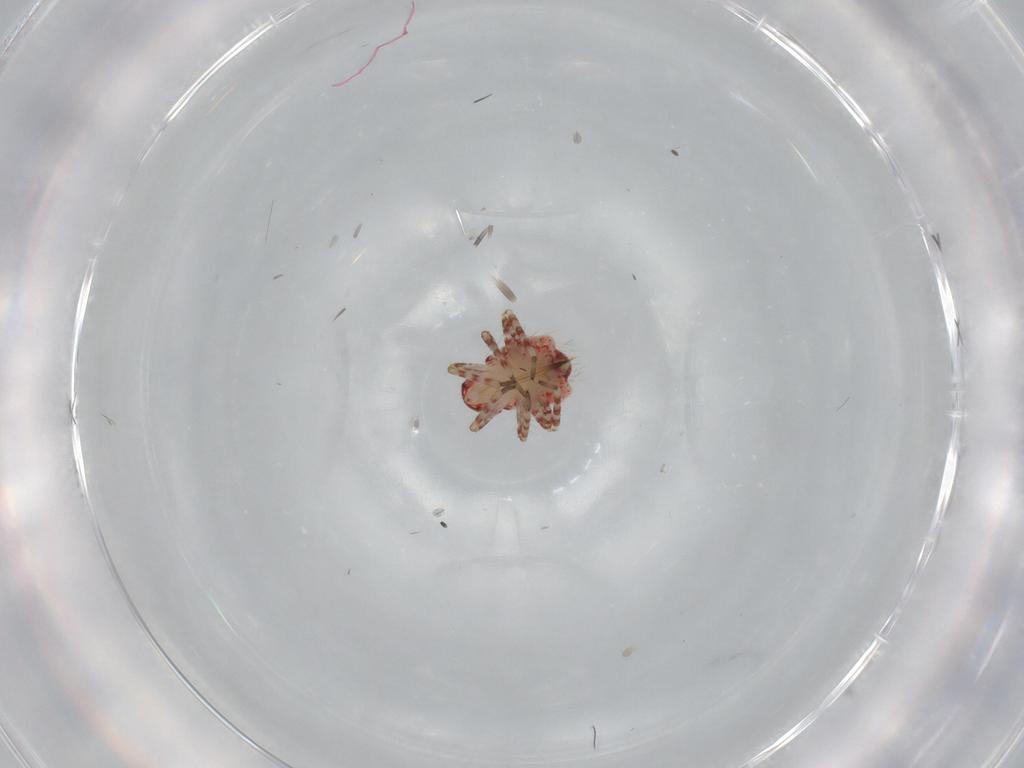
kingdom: Animalia
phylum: Arthropoda
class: Insecta
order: Hemiptera
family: Miridae
